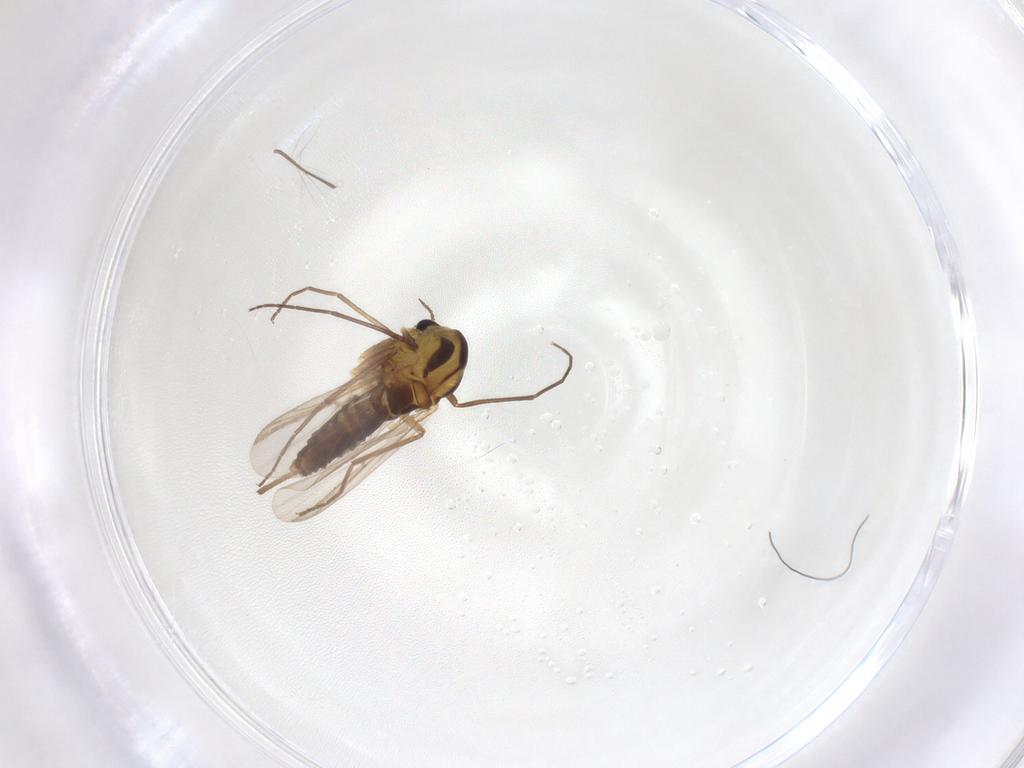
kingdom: Animalia
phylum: Arthropoda
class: Insecta
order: Diptera
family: Chironomidae
